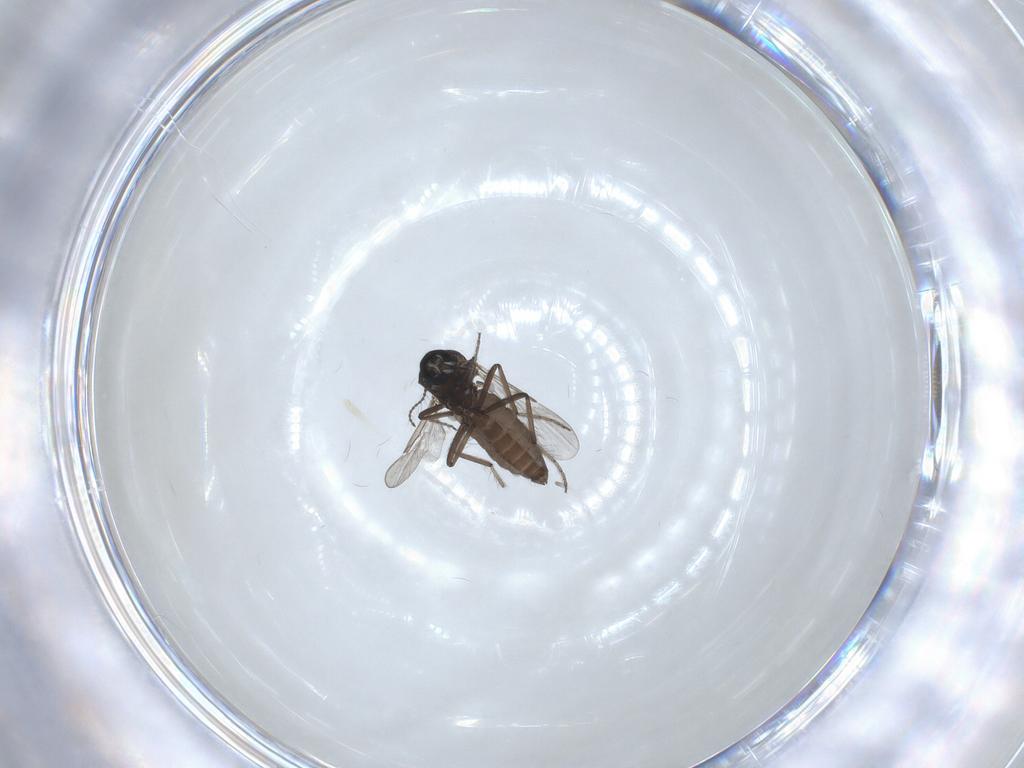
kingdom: Animalia
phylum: Arthropoda
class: Insecta
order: Diptera
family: Ceratopogonidae
